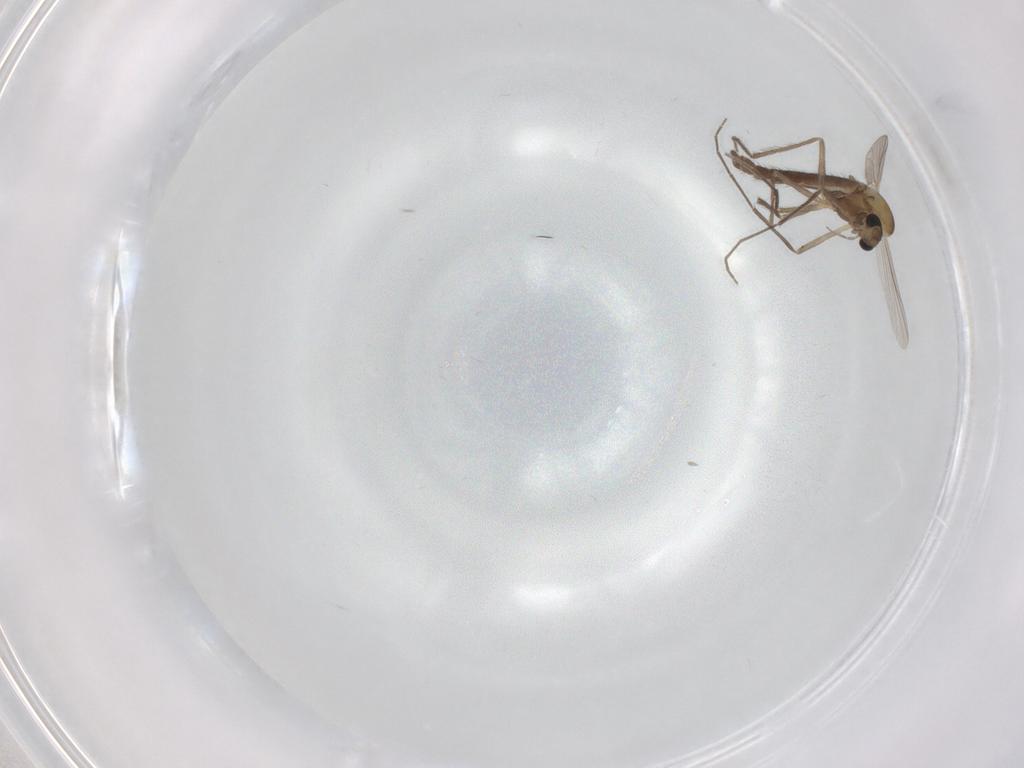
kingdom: Animalia
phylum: Arthropoda
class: Insecta
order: Diptera
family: Chironomidae
